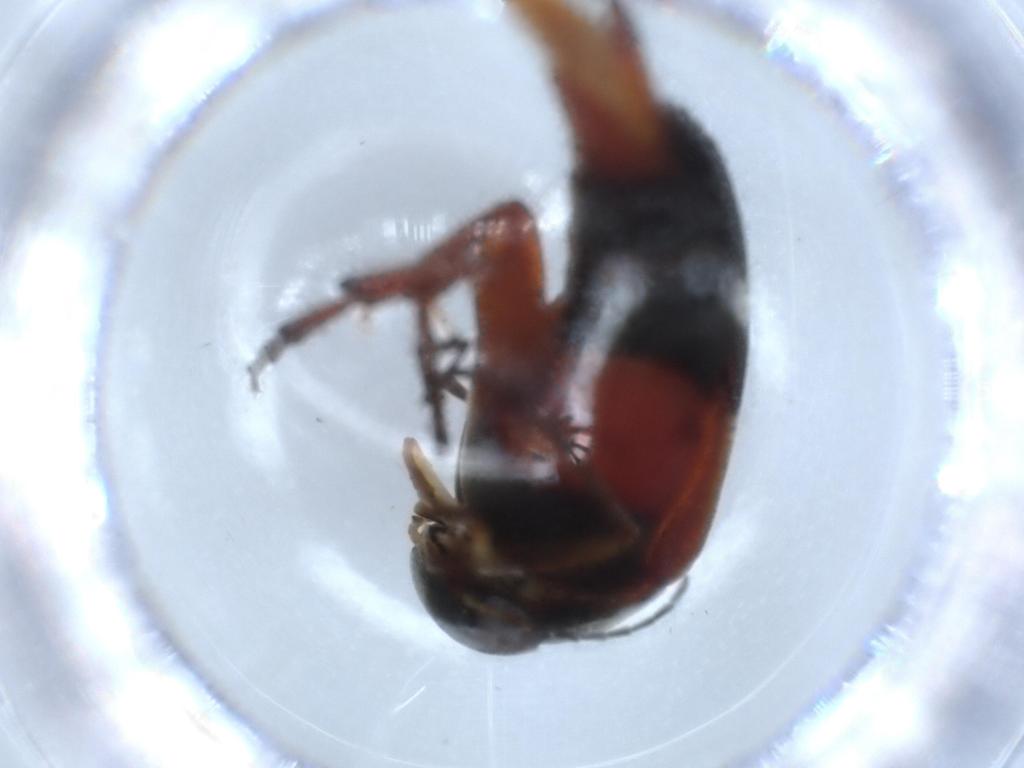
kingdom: Animalia
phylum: Arthropoda
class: Insecta
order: Coleoptera
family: Mordellidae
